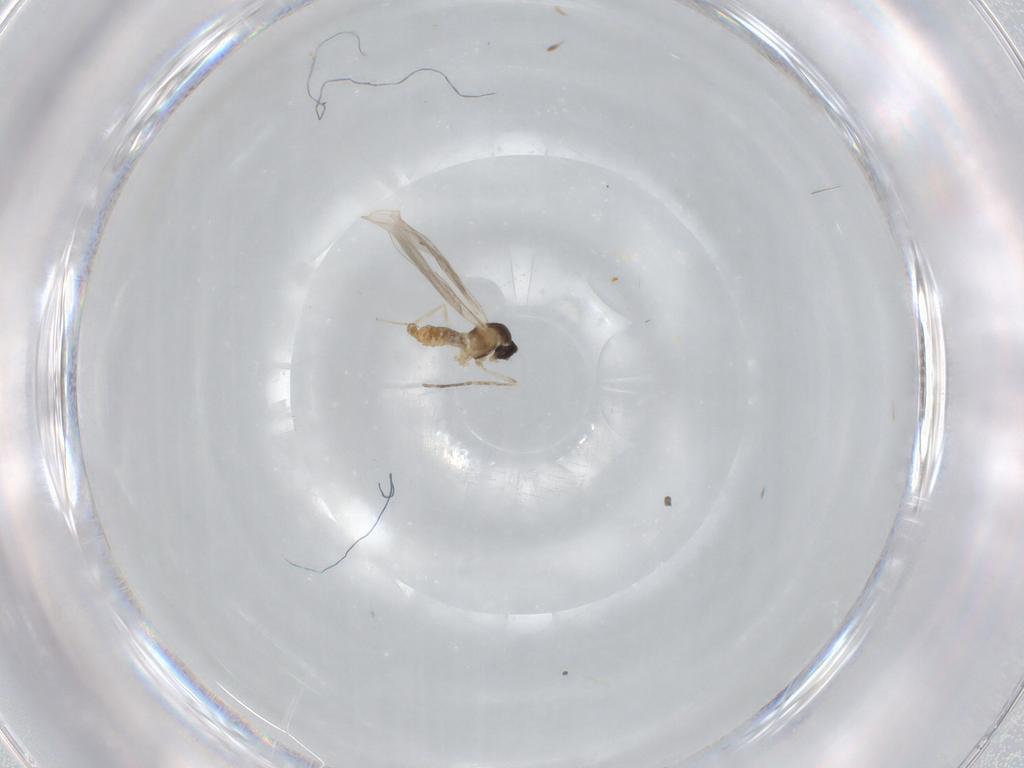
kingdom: Animalia
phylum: Arthropoda
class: Insecta
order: Diptera
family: Cecidomyiidae
